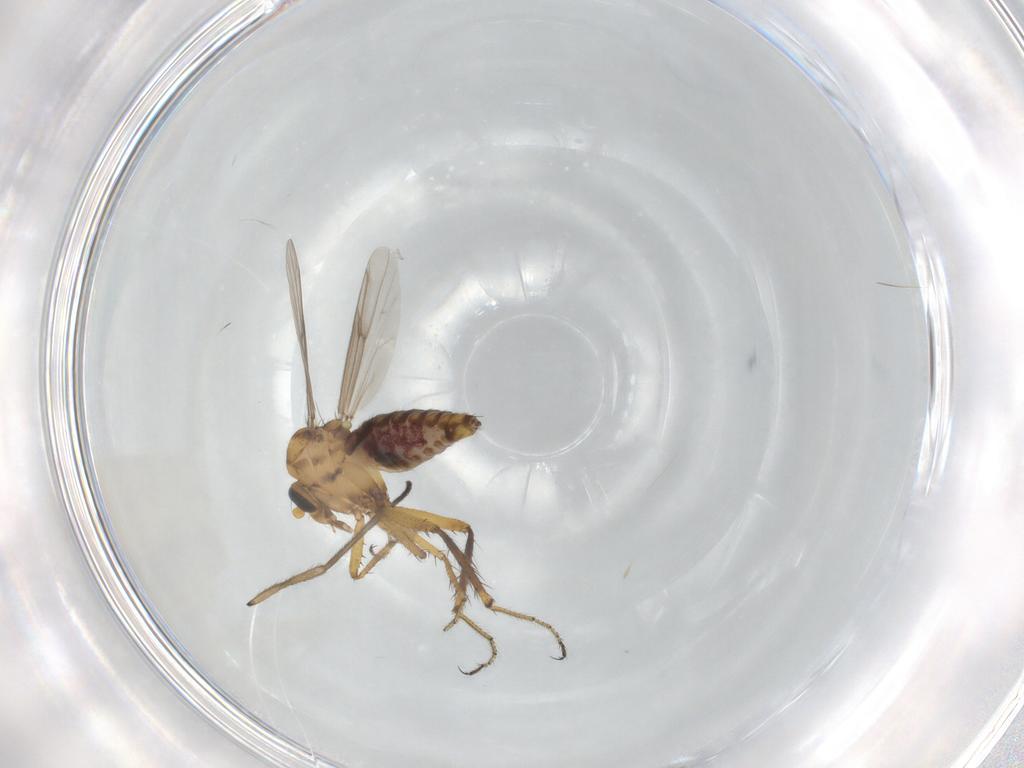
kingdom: Animalia
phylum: Arthropoda
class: Insecta
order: Diptera
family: Ceratopogonidae
